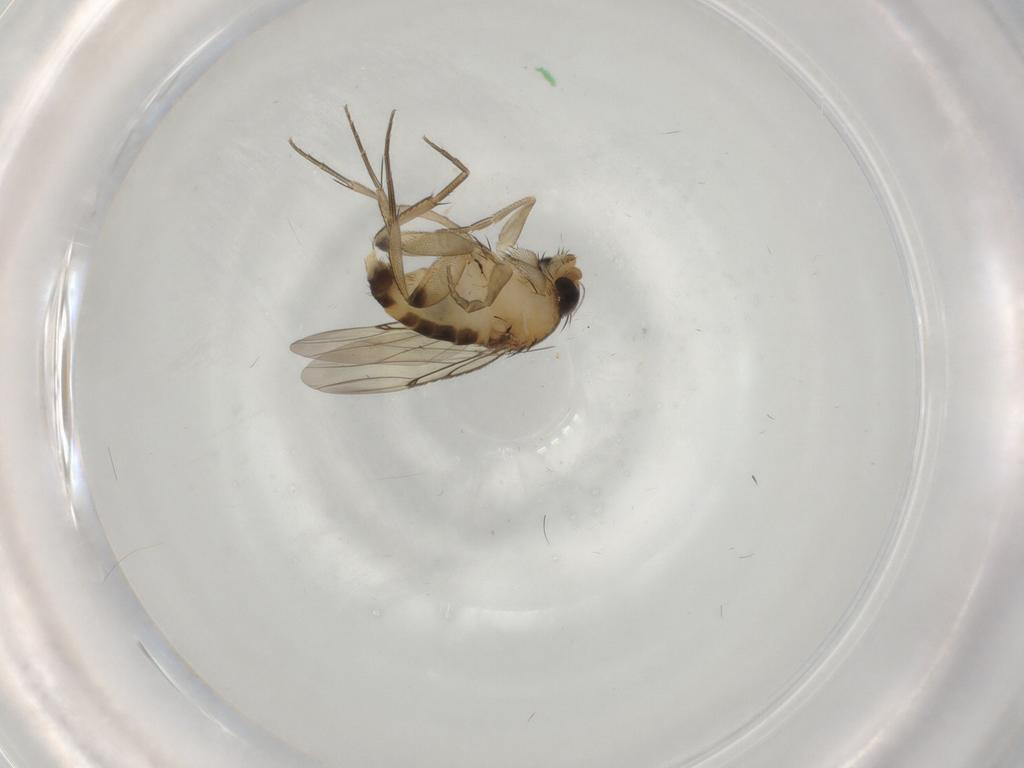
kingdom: Animalia
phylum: Arthropoda
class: Insecta
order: Diptera
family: Phoridae
